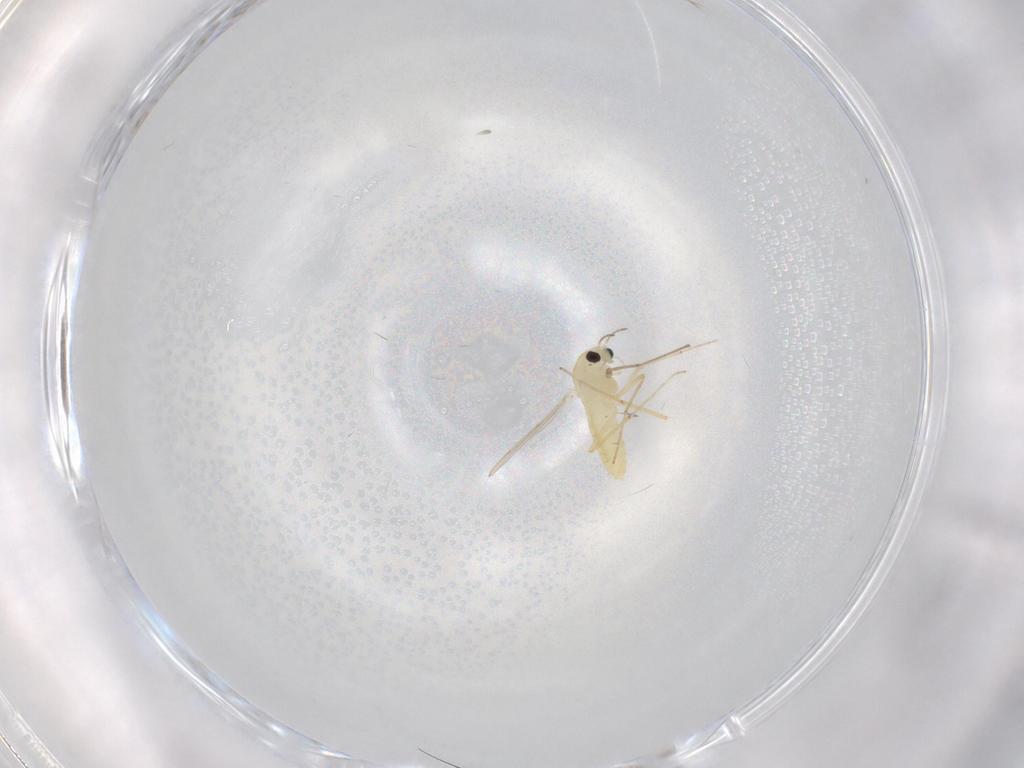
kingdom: Animalia
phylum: Arthropoda
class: Insecta
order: Diptera
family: Chironomidae
